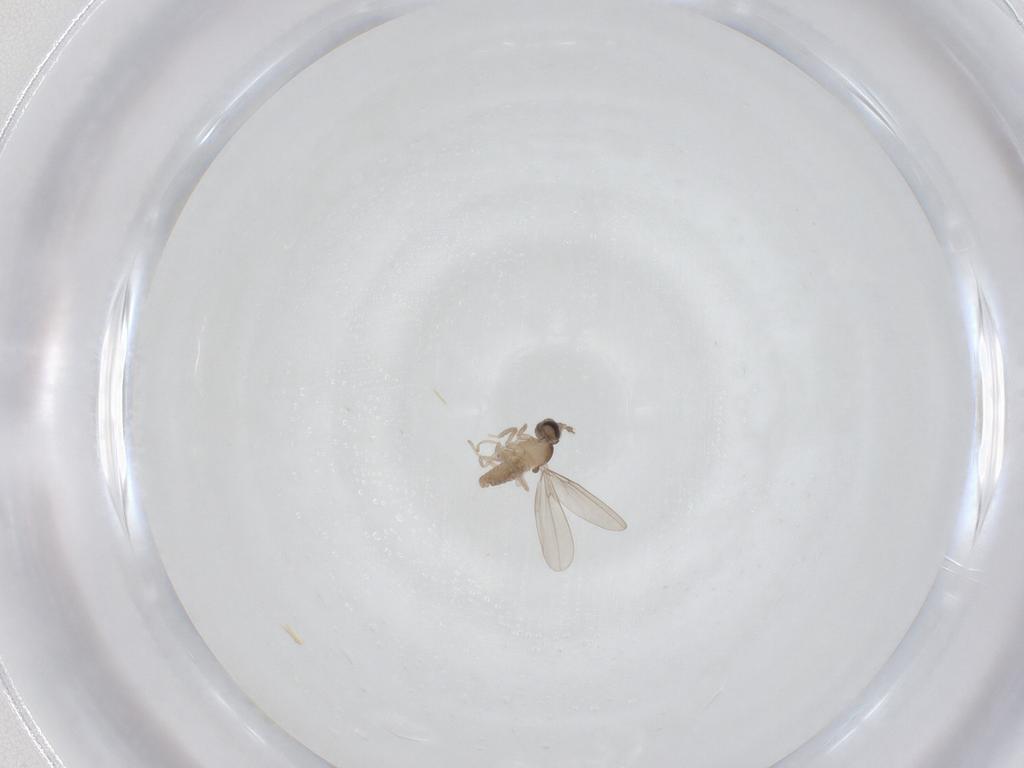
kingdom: Animalia
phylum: Arthropoda
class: Insecta
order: Diptera
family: Cecidomyiidae
